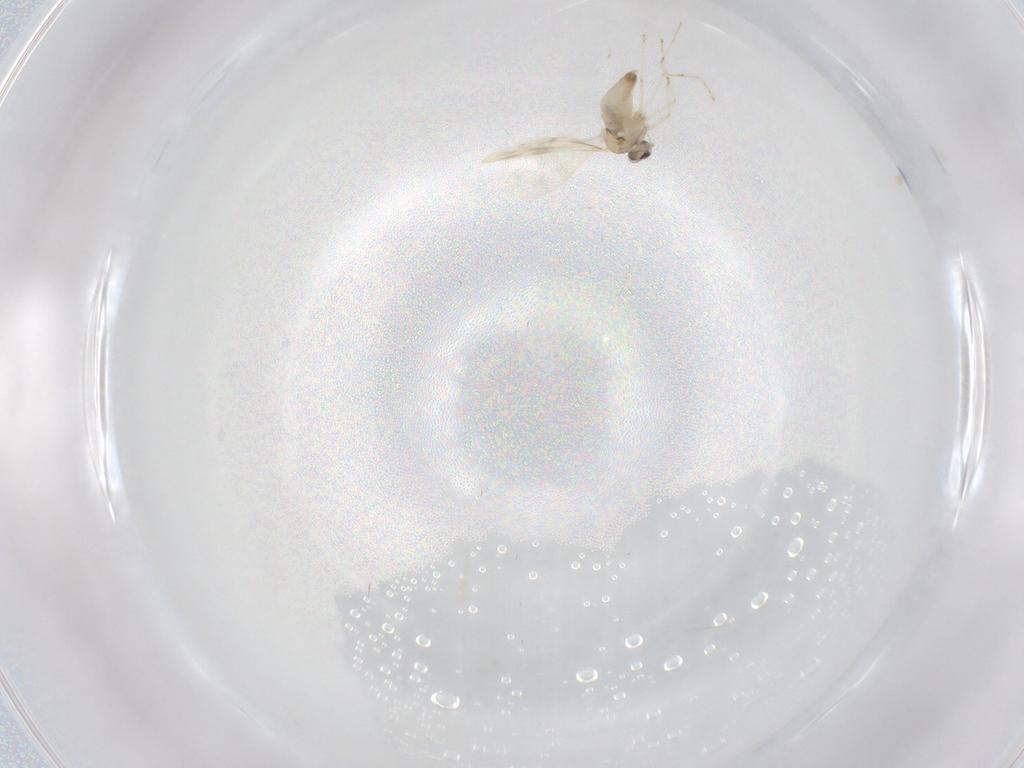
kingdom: Animalia
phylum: Arthropoda
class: Insecta
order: Diptera
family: Cecidomyiidae
